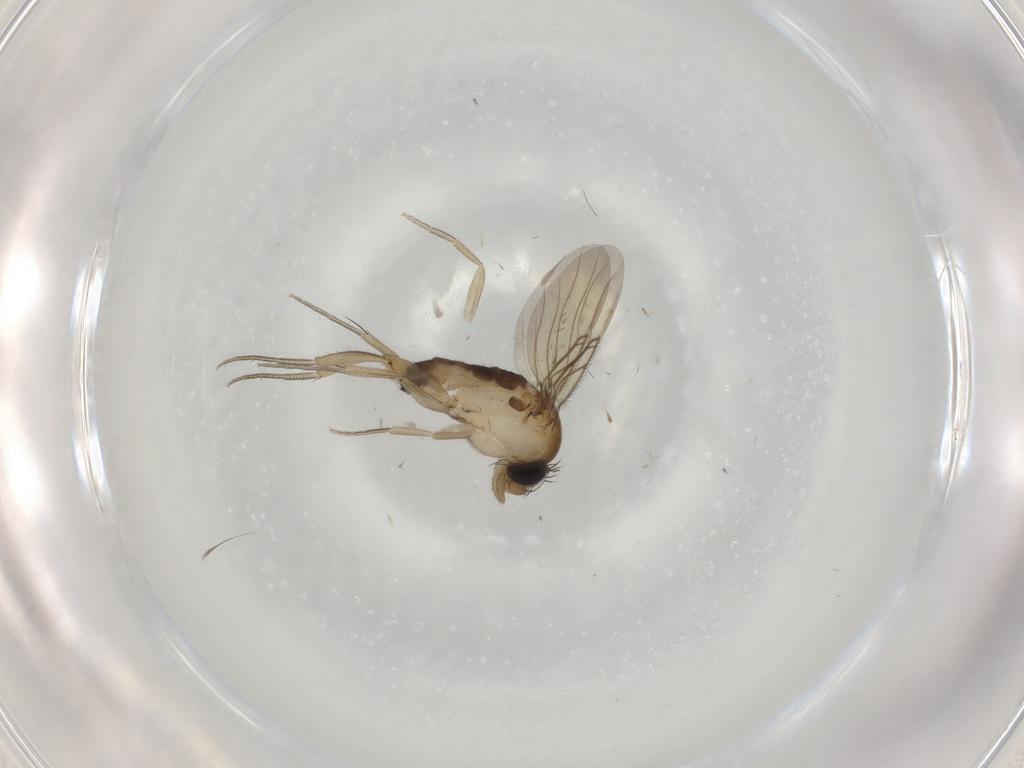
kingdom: Animalia
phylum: Arthropoda
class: Insecta
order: Diptera
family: Phoridae
